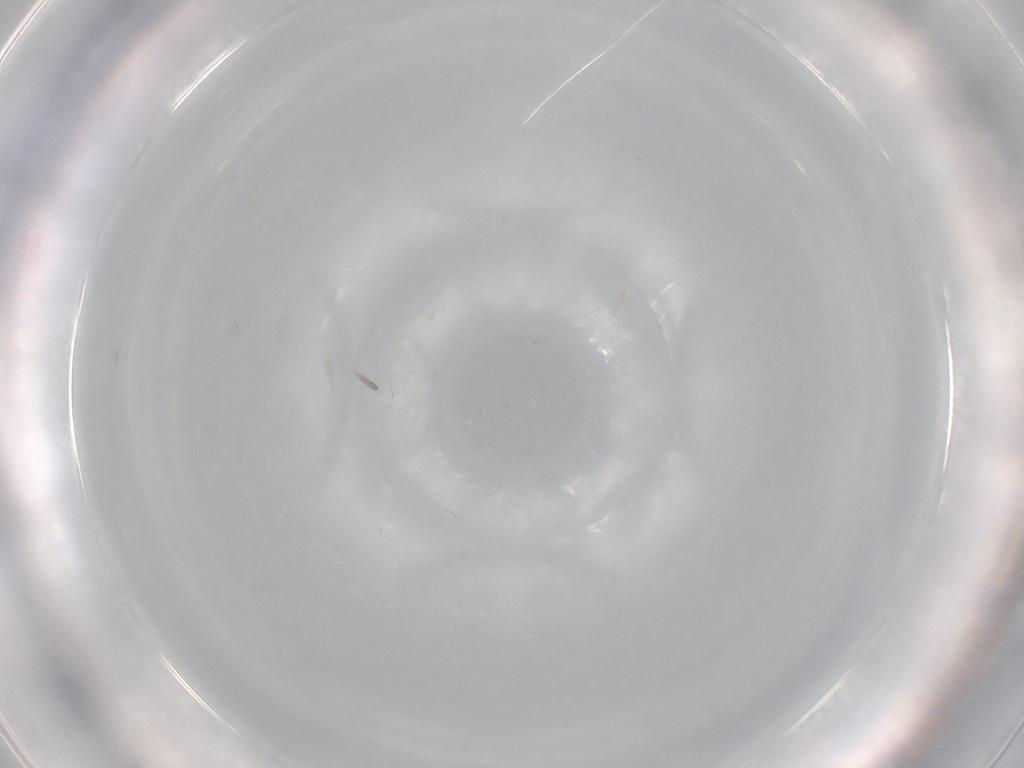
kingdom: Animalia
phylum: Arthropoda
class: Insecta
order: Diptera
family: Stratiomyidae
